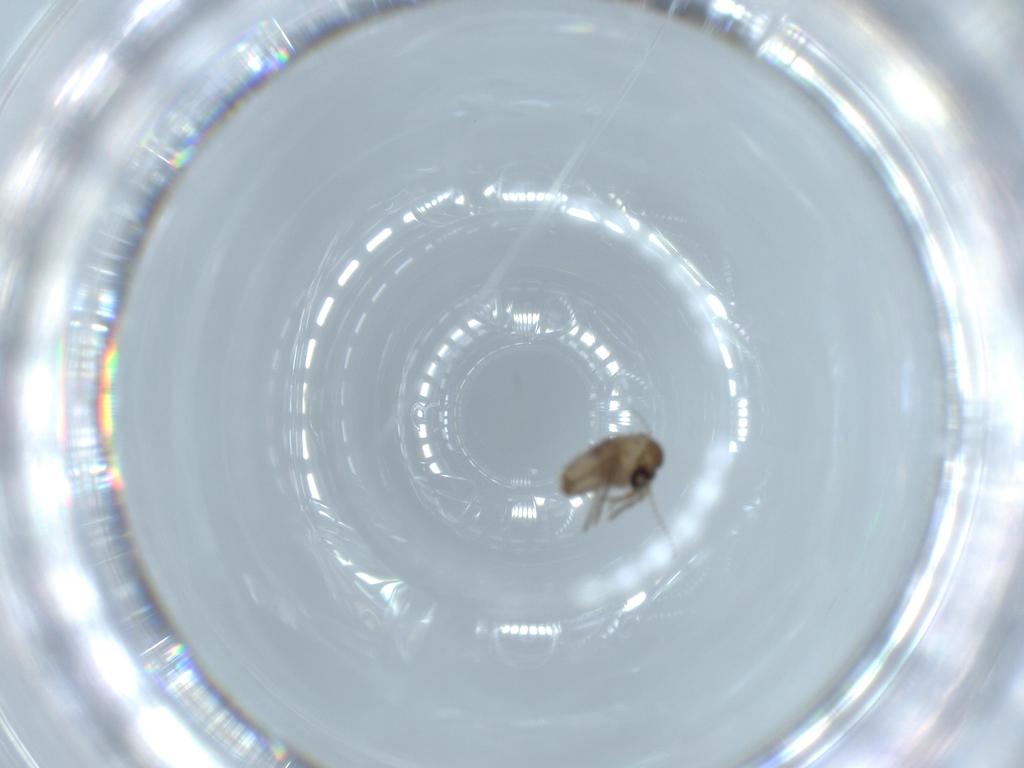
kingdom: Animalia
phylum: Arthropoda
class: Insecta
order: Diptera
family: Psychodidae
